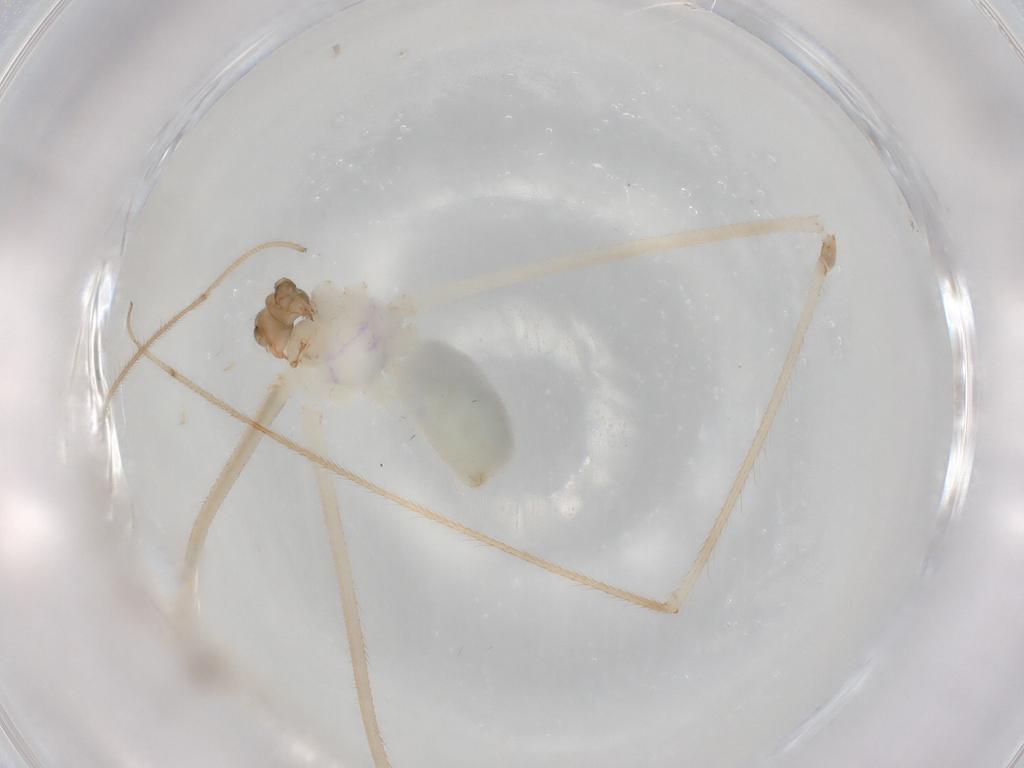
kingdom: Animalia
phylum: Arthropoda
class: Arachnida
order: Araneae
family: Pholcidae
